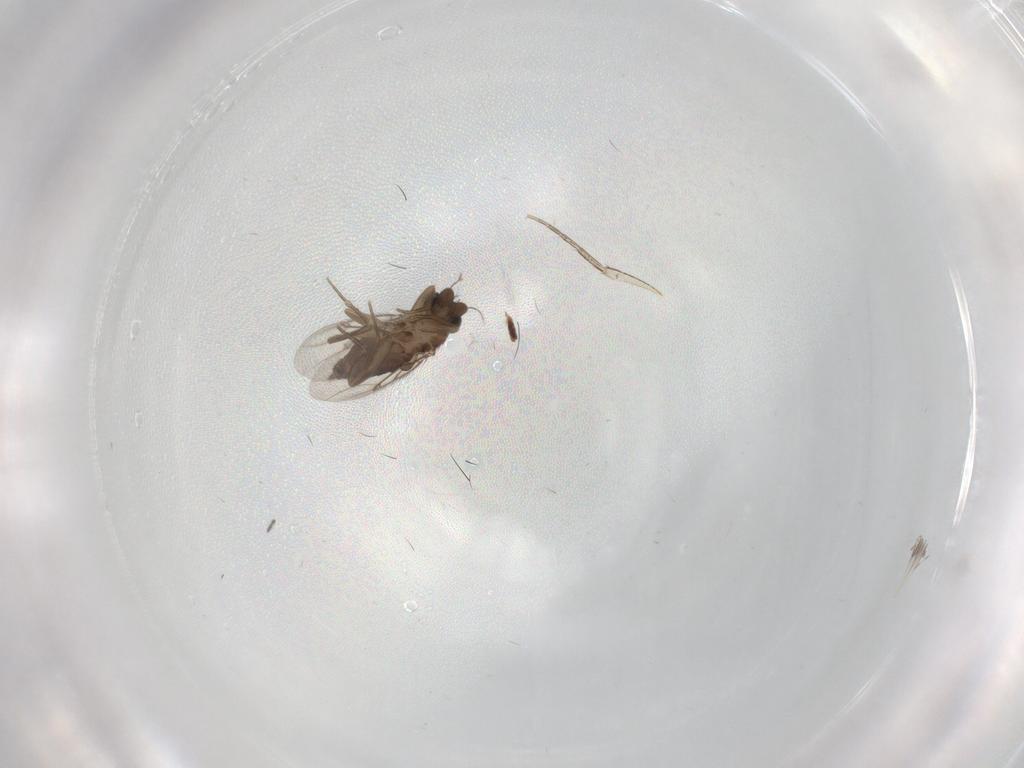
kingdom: Animalia
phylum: Arthropoda
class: Insecta
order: Diptera
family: Phoridae
